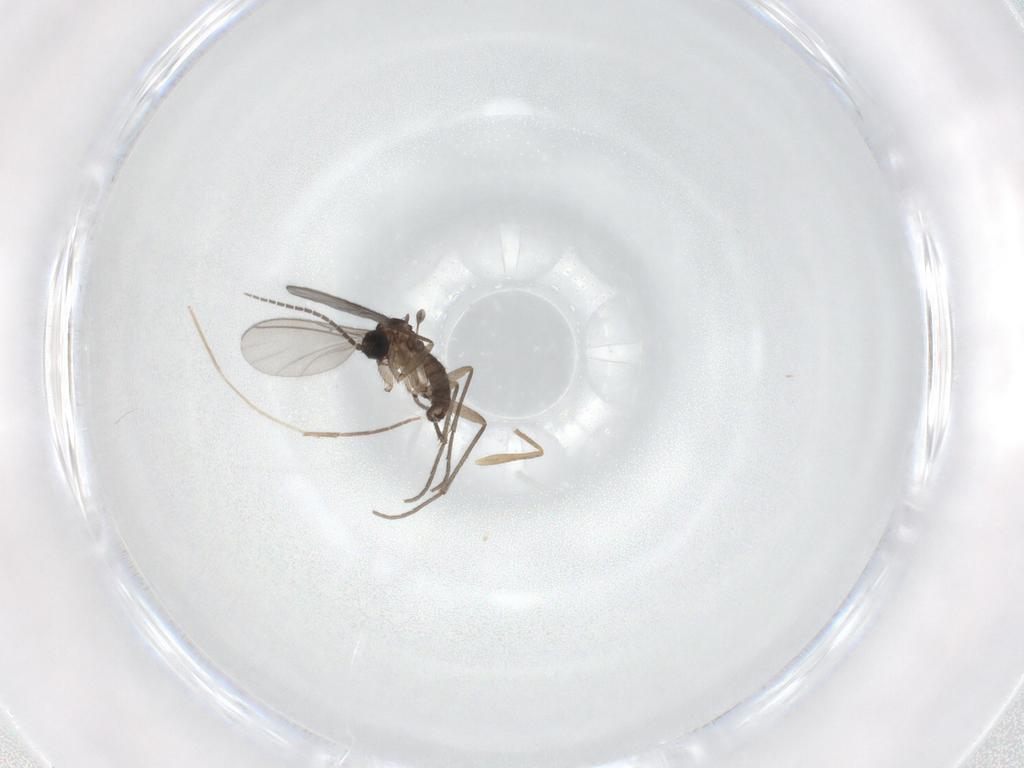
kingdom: Animalia
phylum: Arthropoda
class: Insecta
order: Diptera
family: Sciaridae
